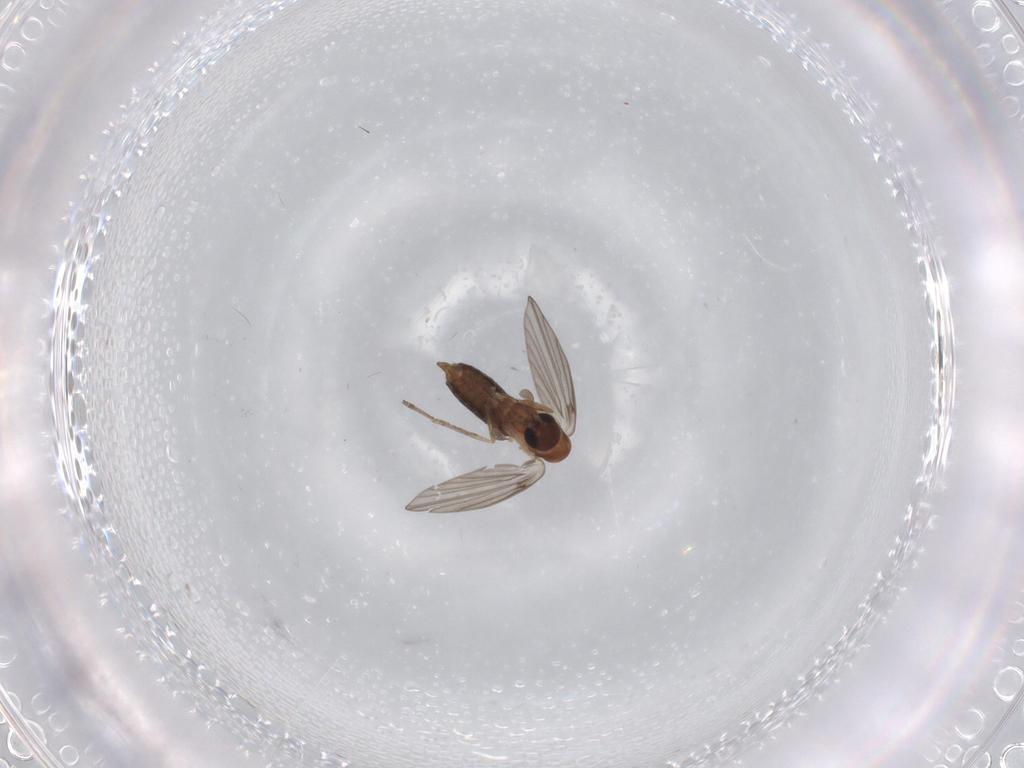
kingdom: Animalia
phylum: Arthropoda
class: Insecta
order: Diptera
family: Psychodidae
